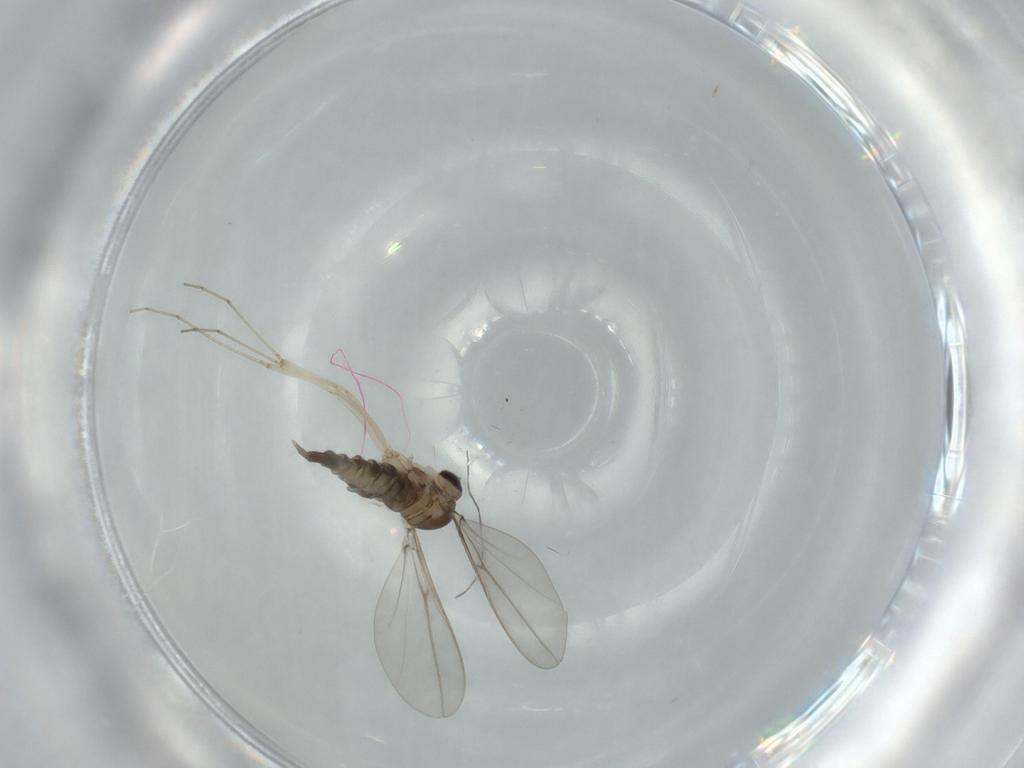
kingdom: Animalia
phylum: Arthropoda
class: Insecta
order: Diptera
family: Cecidomyiidae
